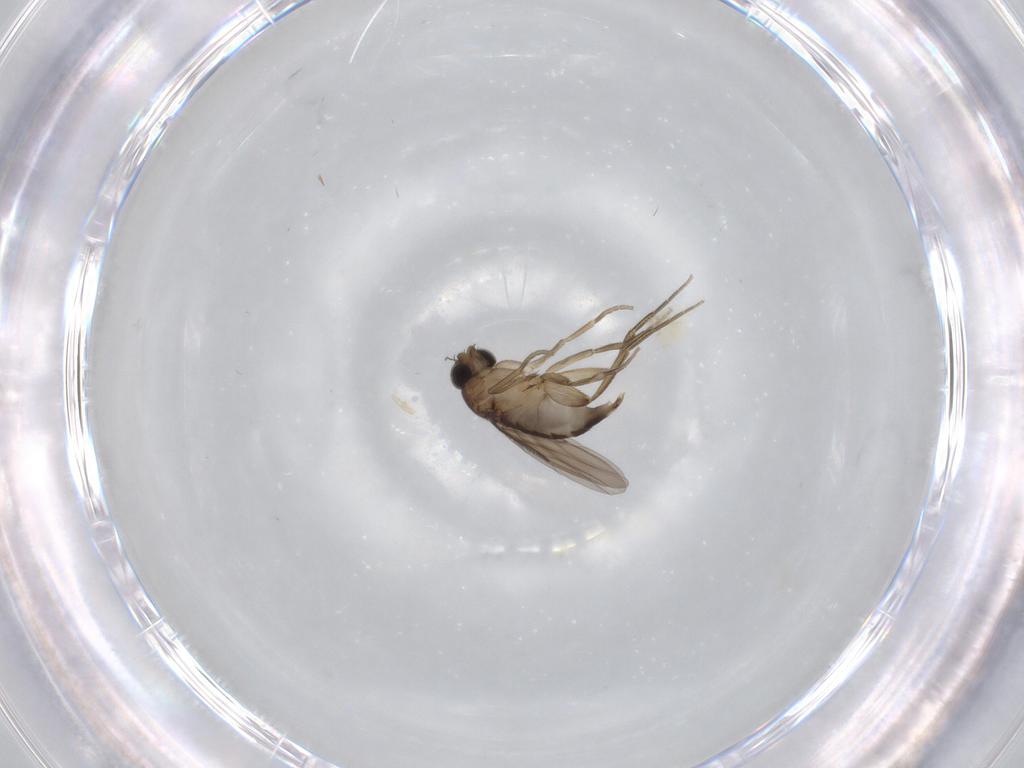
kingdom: Animalia
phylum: Arthropoda
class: Insecta
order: Diptera
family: Phoridae
